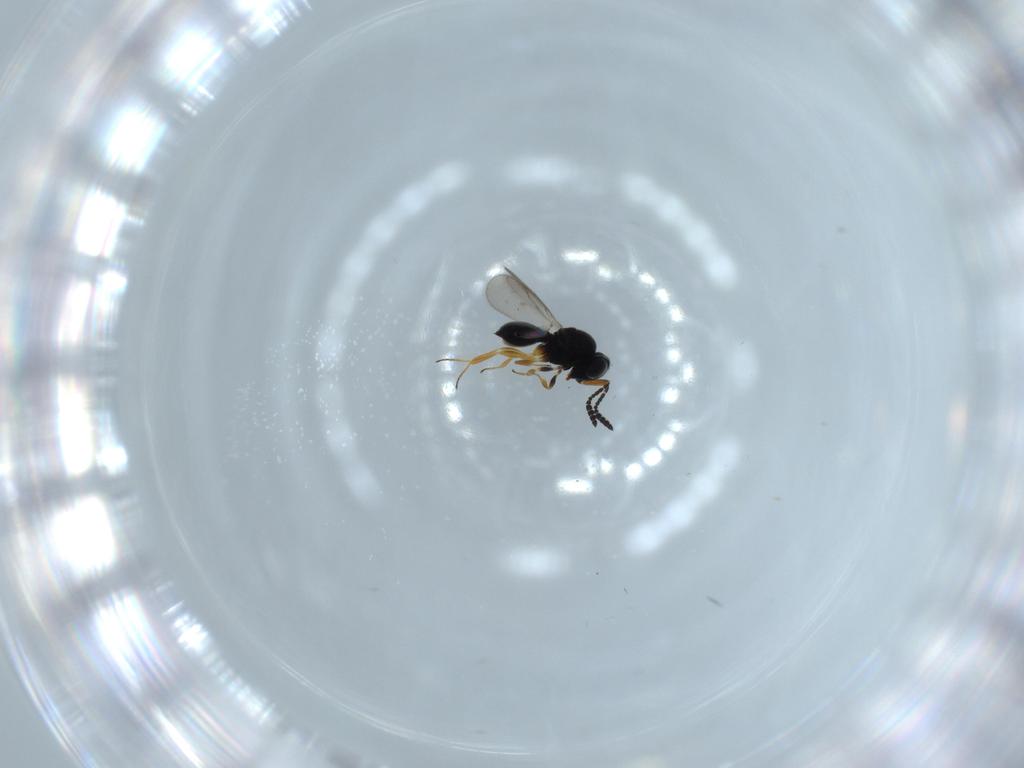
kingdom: Animalia
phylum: Arthropoda
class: Insecta
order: Hymenoptera
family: Scelionidae
